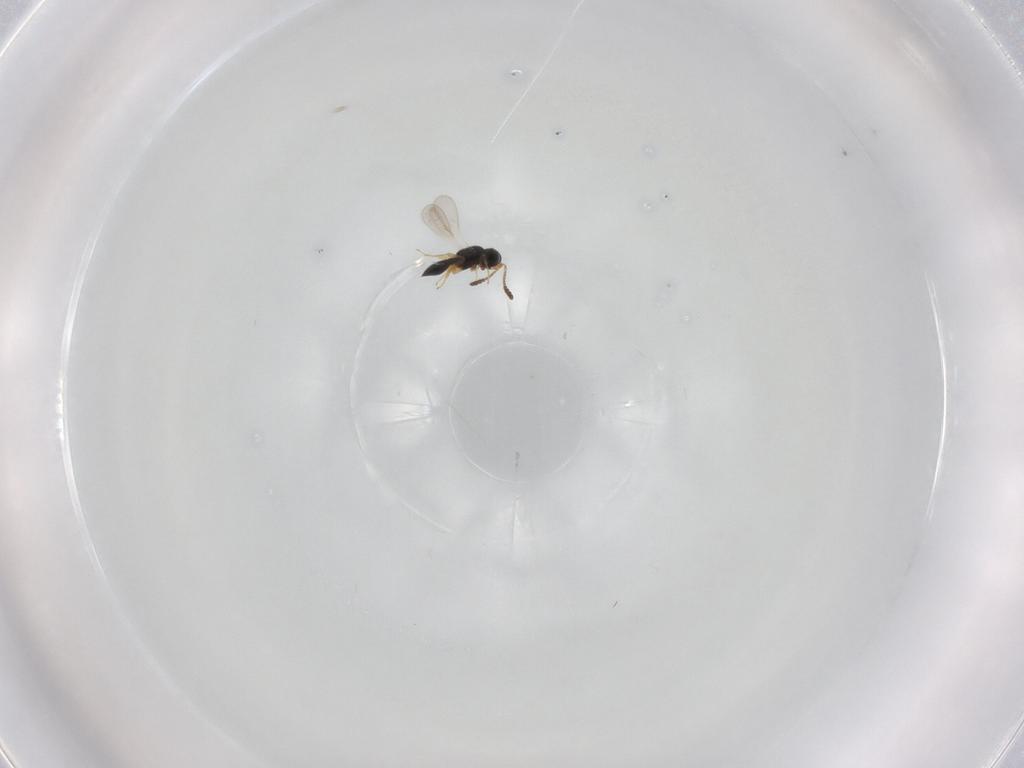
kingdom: Animalia
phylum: Arthropoda
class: Insecta
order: Hymenoptera
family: Scelionidae
